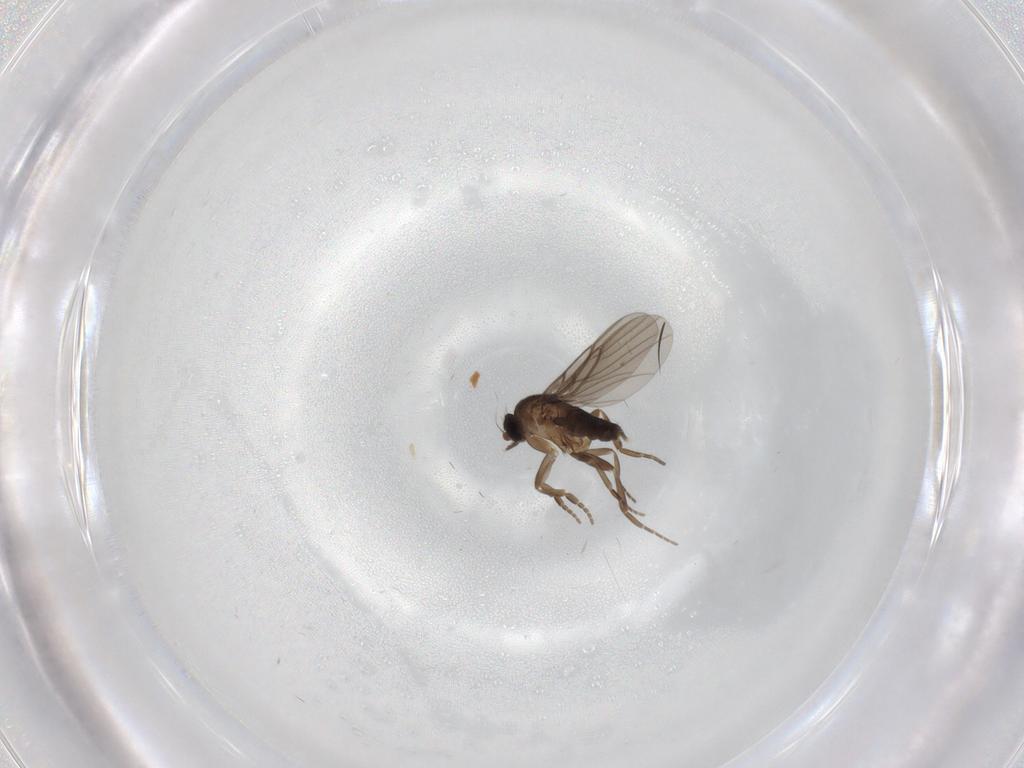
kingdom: Animalia
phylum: Arthropoda
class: Insecta
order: Diptera
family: Phoridae
